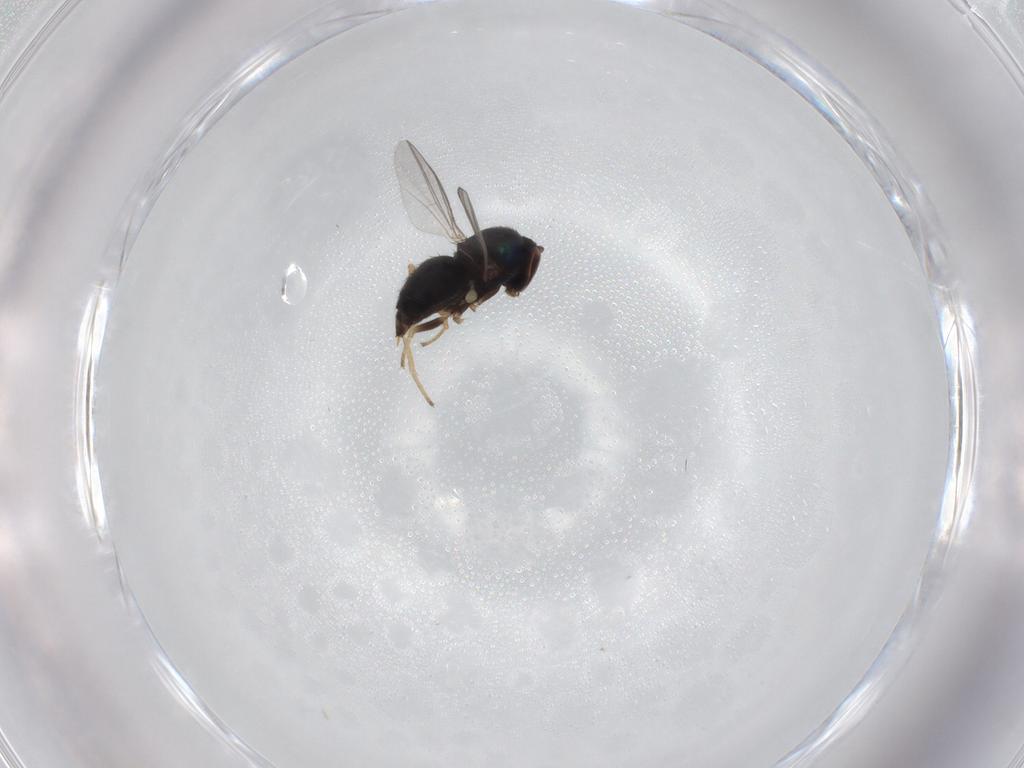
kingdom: Animalia
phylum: Arthropoda
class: Insecta
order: Diptera
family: Dolichopodidae
